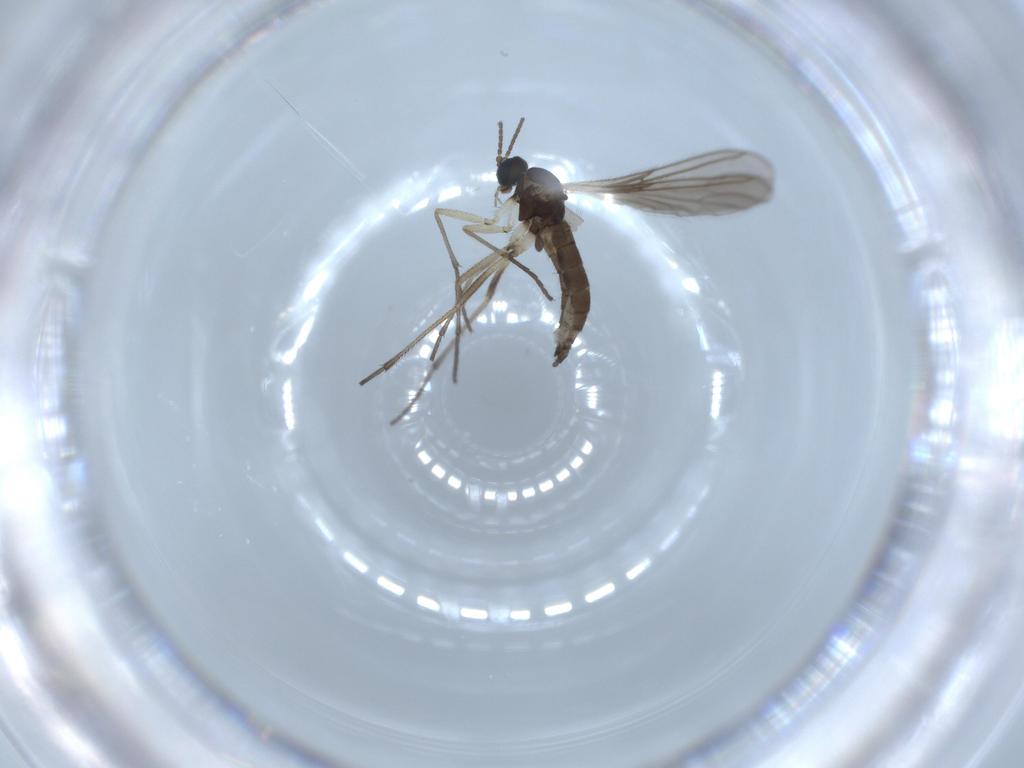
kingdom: Animalia
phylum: Arthropoda
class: Insecta
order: Diptera
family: Sciaridae
